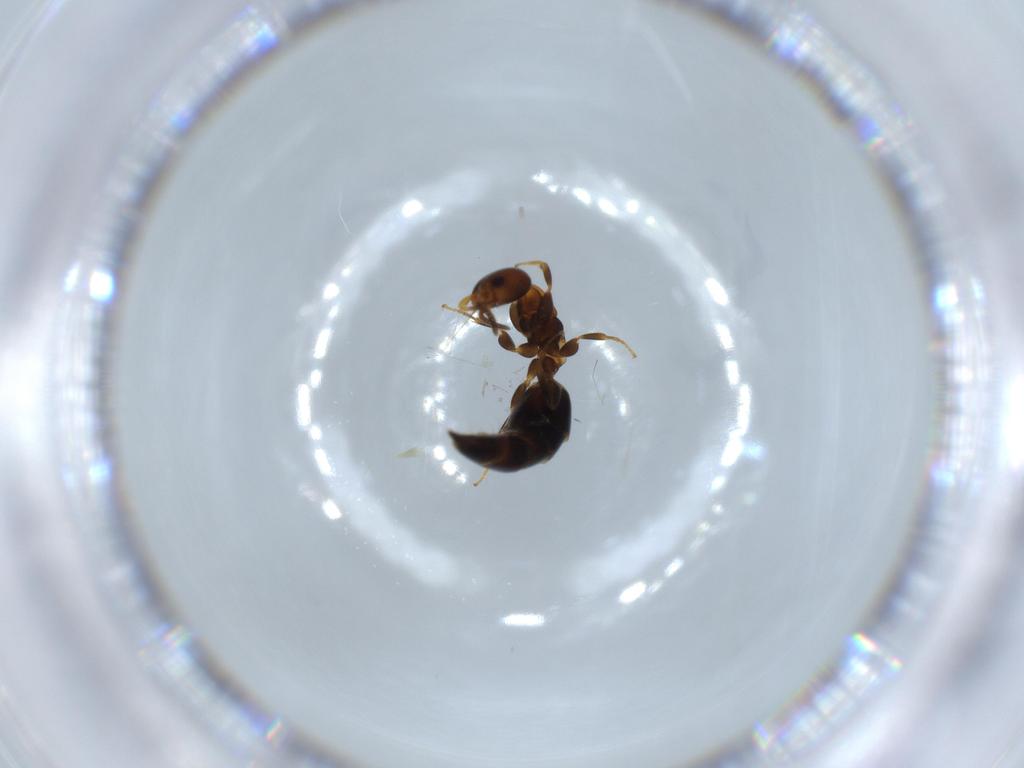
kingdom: Animalia
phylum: Arthropoda
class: Insecta
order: Hymenoptera
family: Bethylidae
